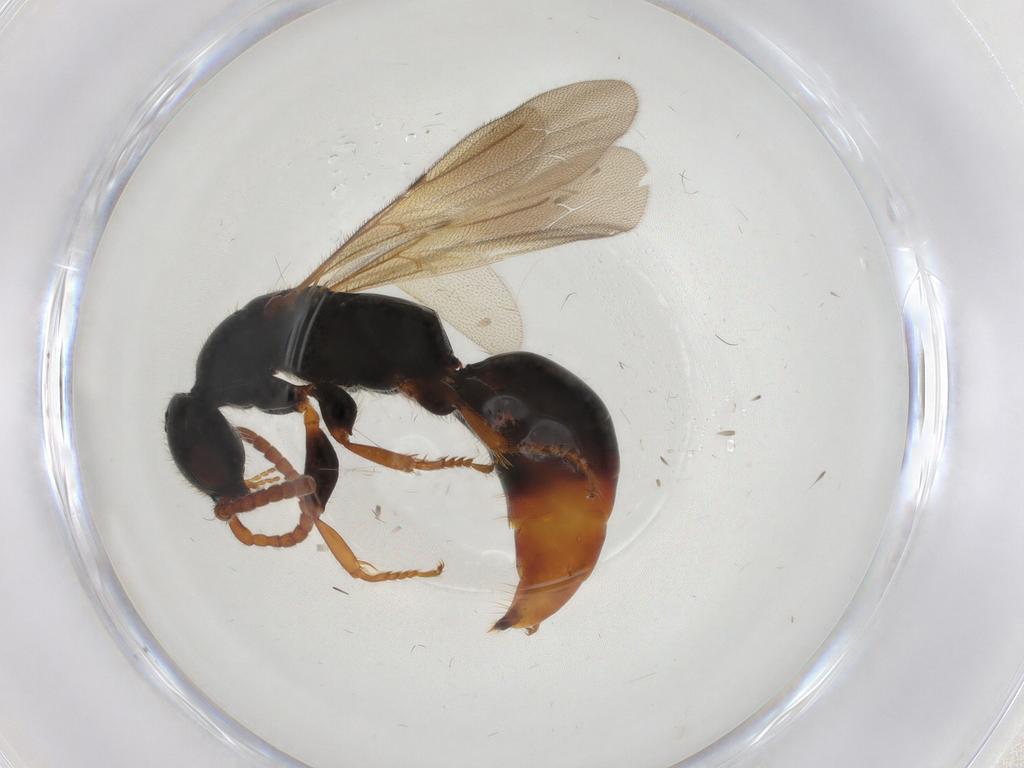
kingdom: Animalia
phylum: Arthropoda
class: Insecta
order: Hymenoptera
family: Bethylidae
